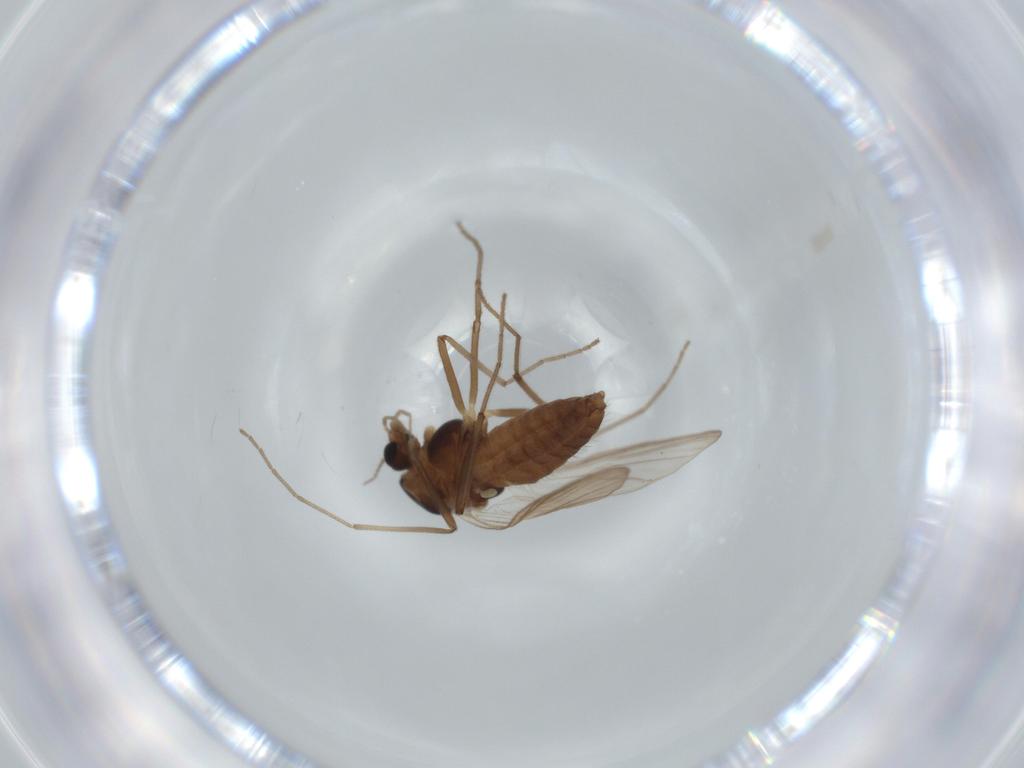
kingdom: Animalia
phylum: Arthropoda
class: Insecta
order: Diptera
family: Chironomidae
